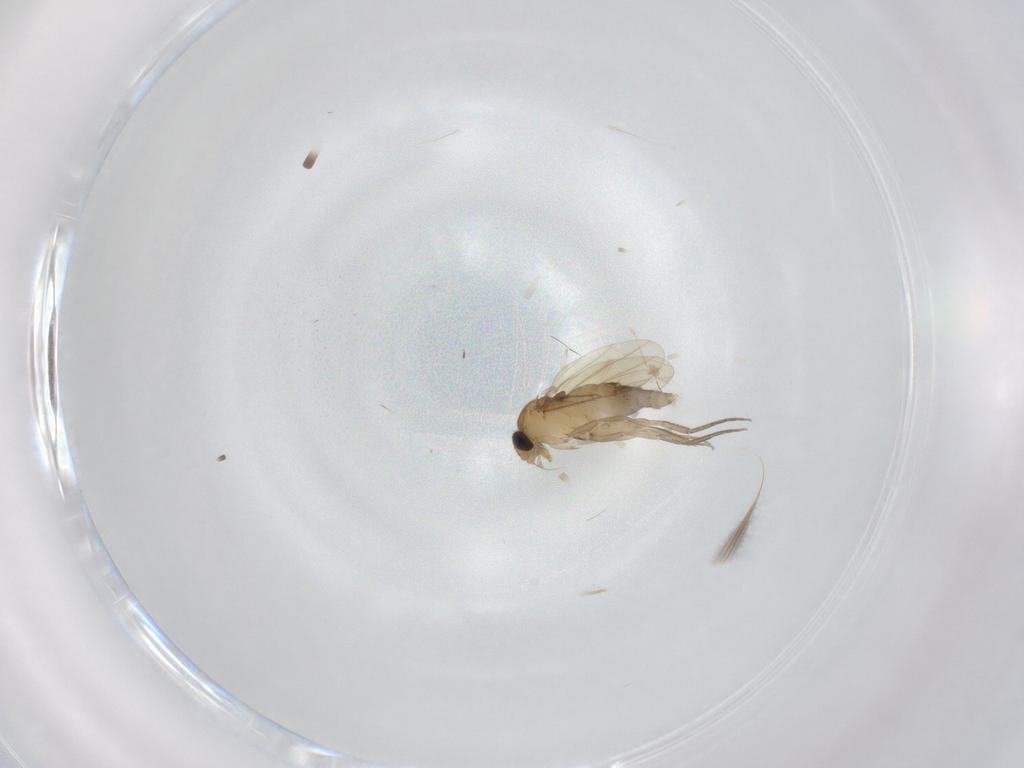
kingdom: Animalia
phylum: Arthropoda
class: Insecta
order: Diptera
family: Phoridae
